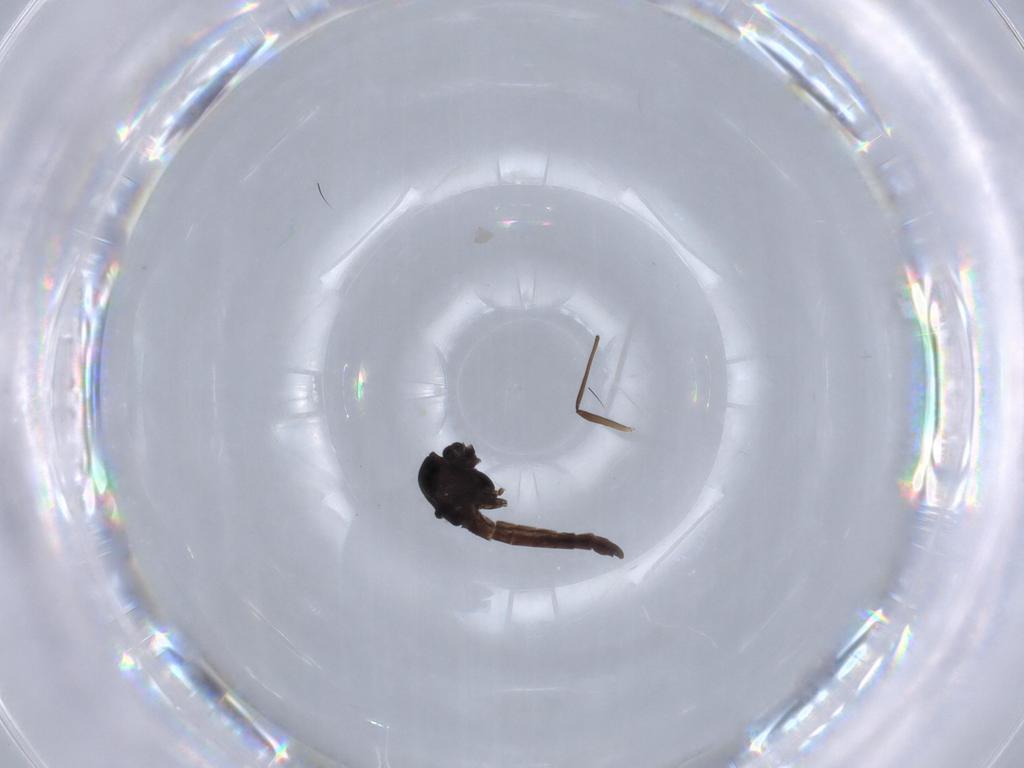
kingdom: Animalia
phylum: Arthropoda
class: Insecta
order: Diptera
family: Chironomidae
